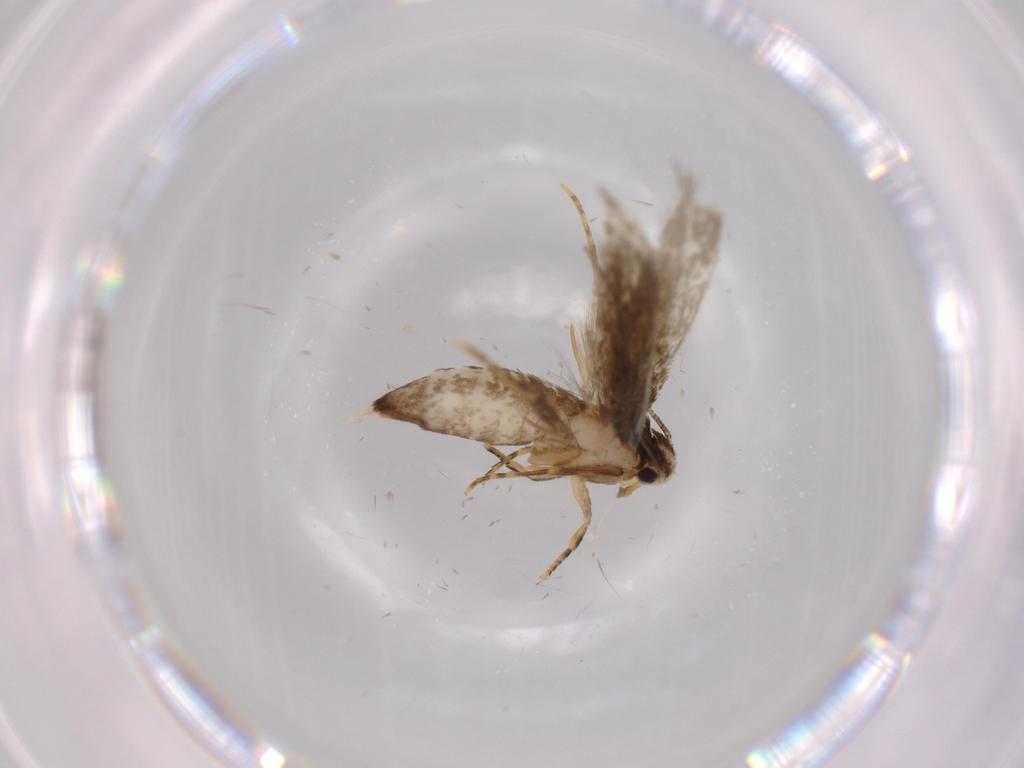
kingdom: Animalia
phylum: Arthropoda
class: Insecta
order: Lepidoptera
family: Tineidae
